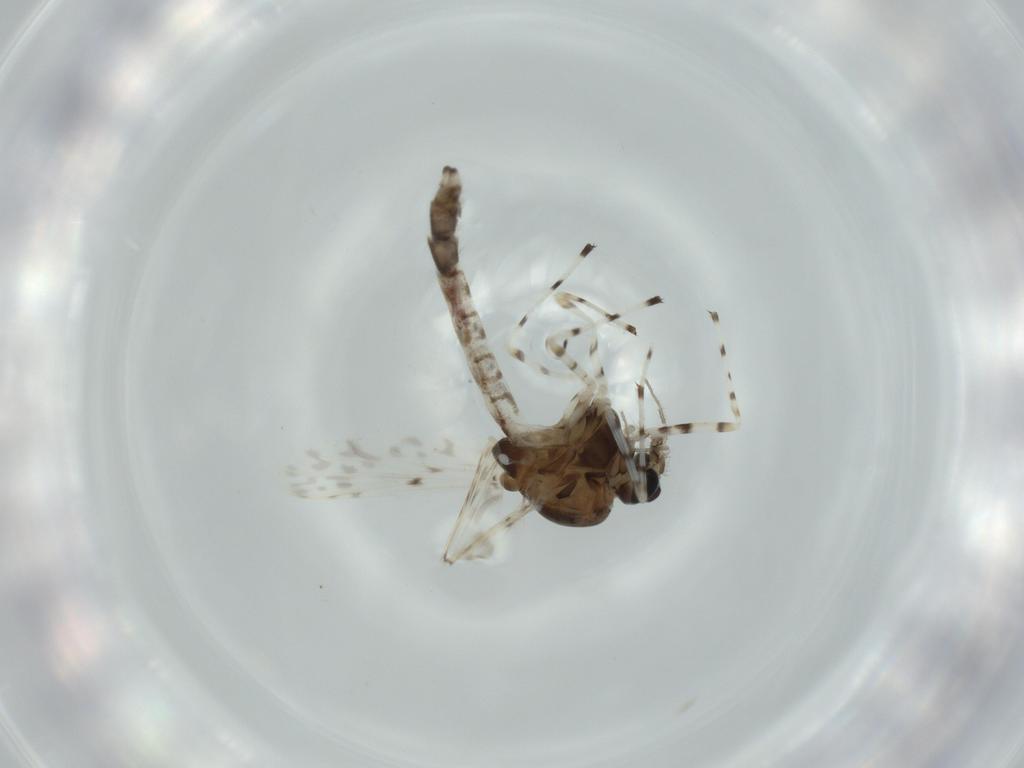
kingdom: Animalia
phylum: Arthropoda
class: Insecta
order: Diptera
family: Chironomidae
